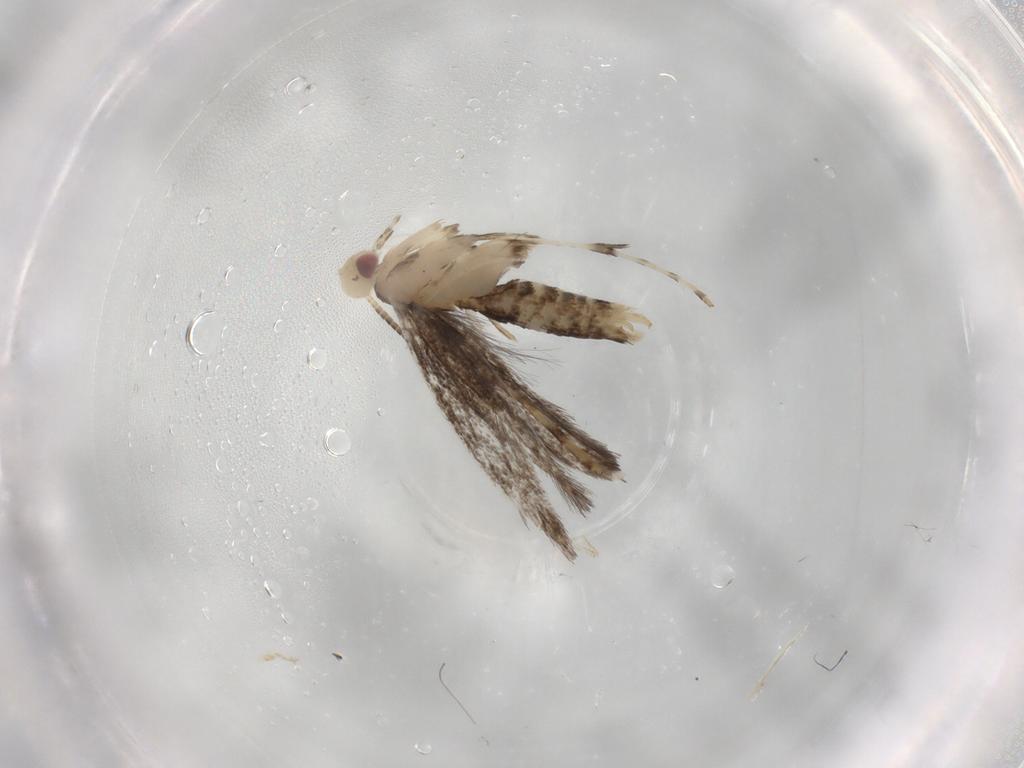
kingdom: Animalia
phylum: Arthropoda
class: Insecta
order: Lepidoptera
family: Gracillariidae
